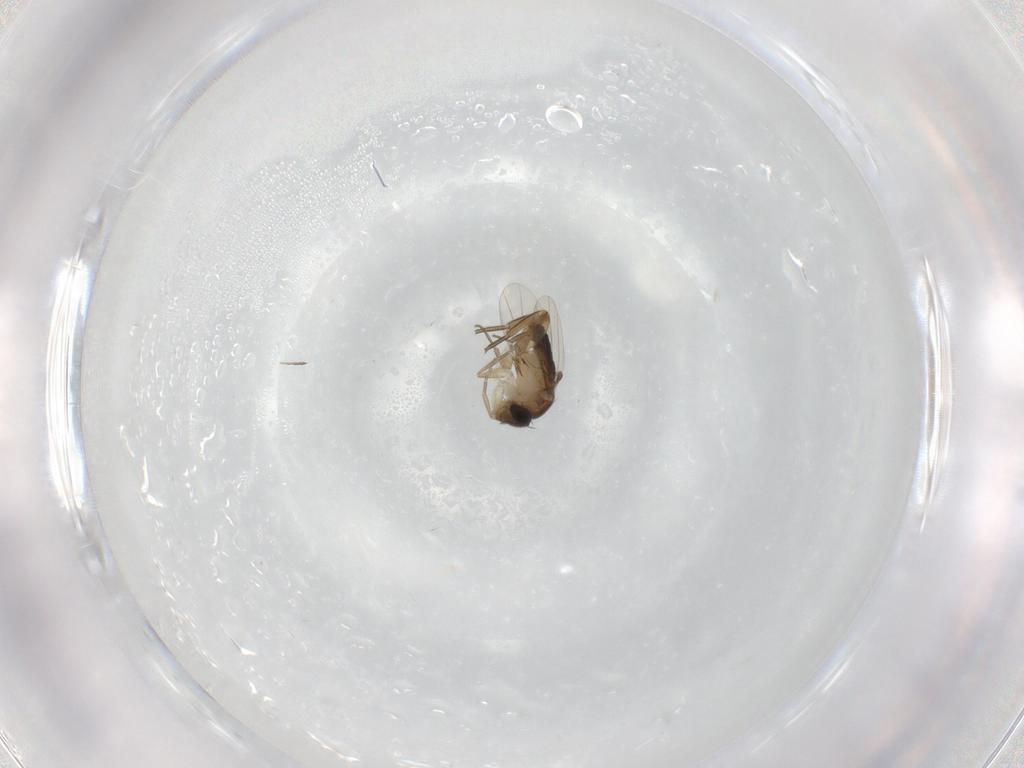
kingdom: Animalia
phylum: Arthropoda
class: Insecta
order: Diptera
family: Sciaridae
